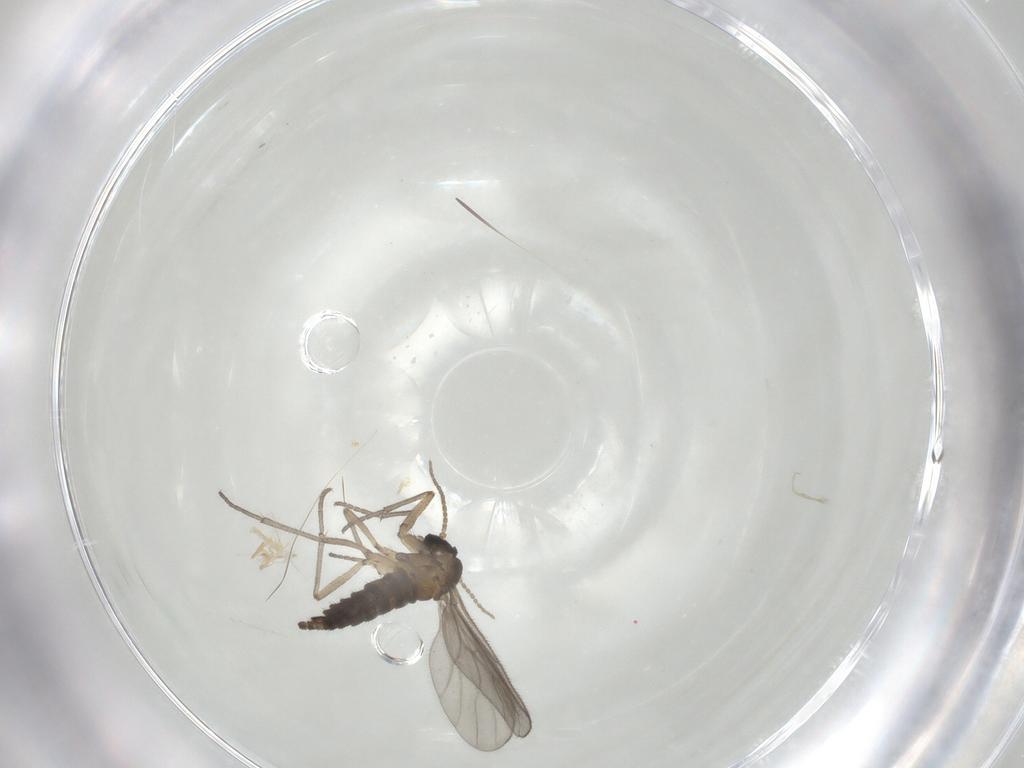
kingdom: Animalia
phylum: Arthropoda
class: Insecta
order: Diptera
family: Sciaridae
